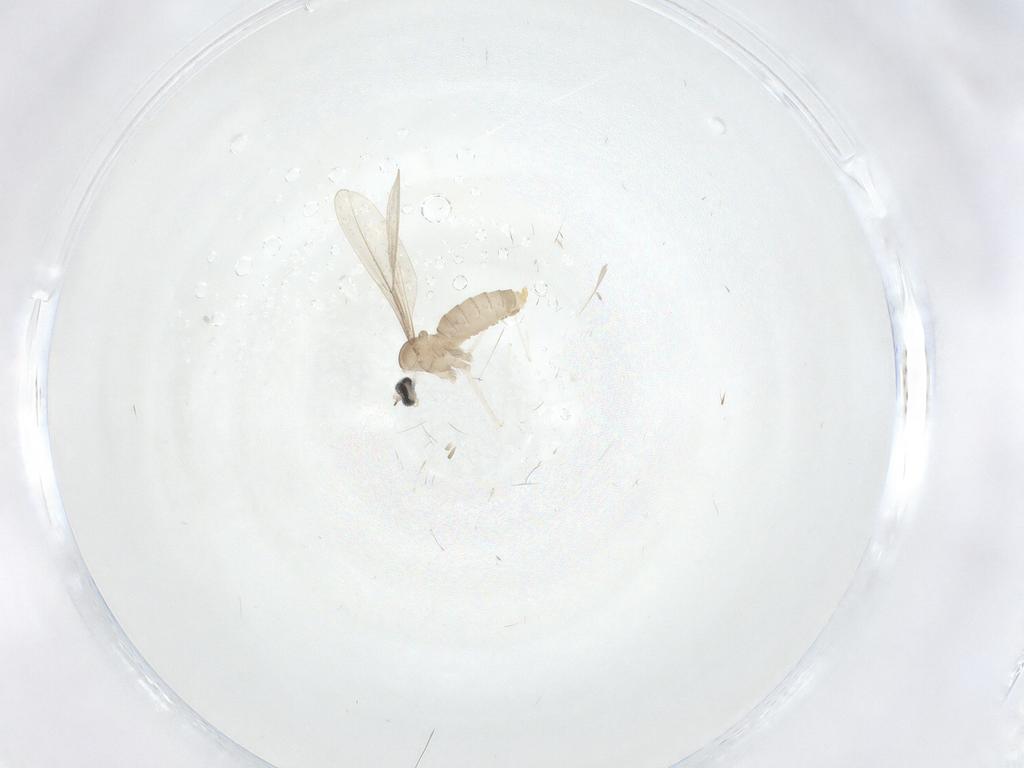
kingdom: Animalia
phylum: Arthropoda
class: Insecta
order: Diptera
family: Cecidomyiidae
